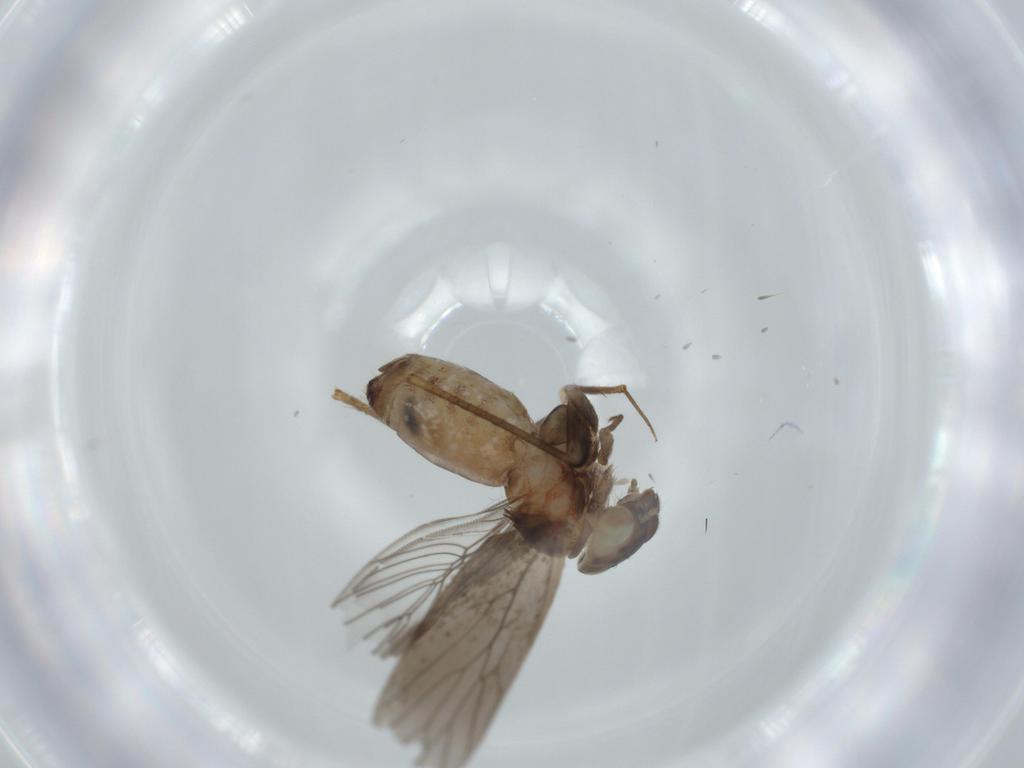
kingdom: Animalia
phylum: Arthropoda
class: Insecta
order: Psocodea
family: Lepidopsocidae
